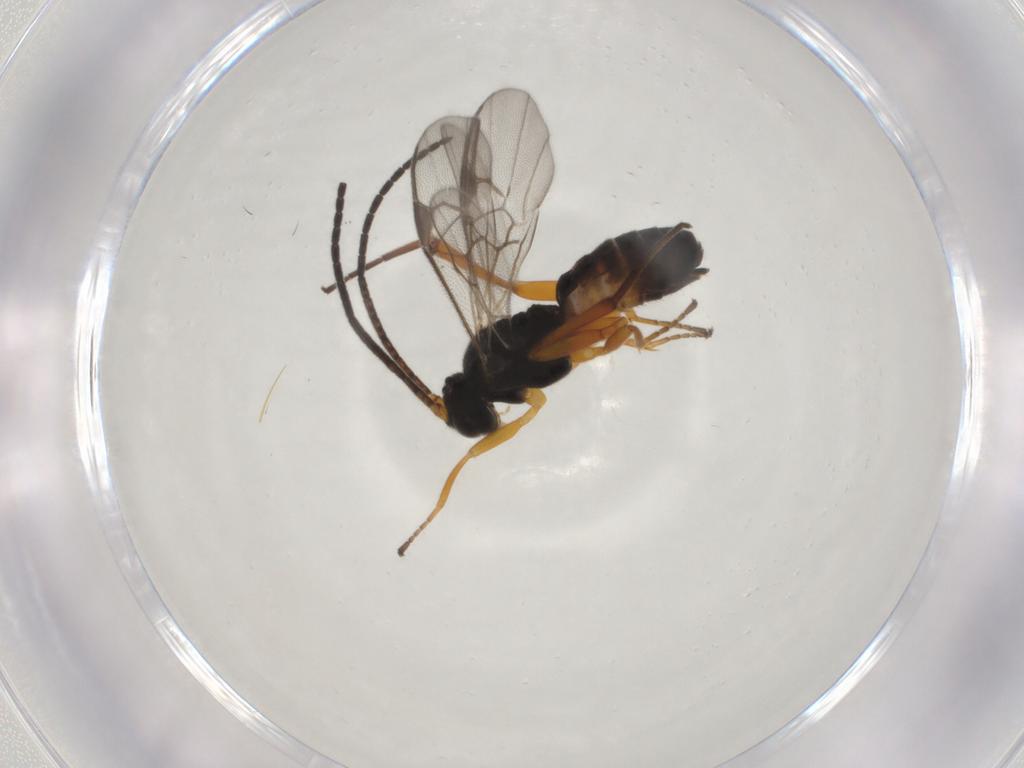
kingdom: Animalia
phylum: Arthropoda
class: Insecta
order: Hymenoptera
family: Braconidae
